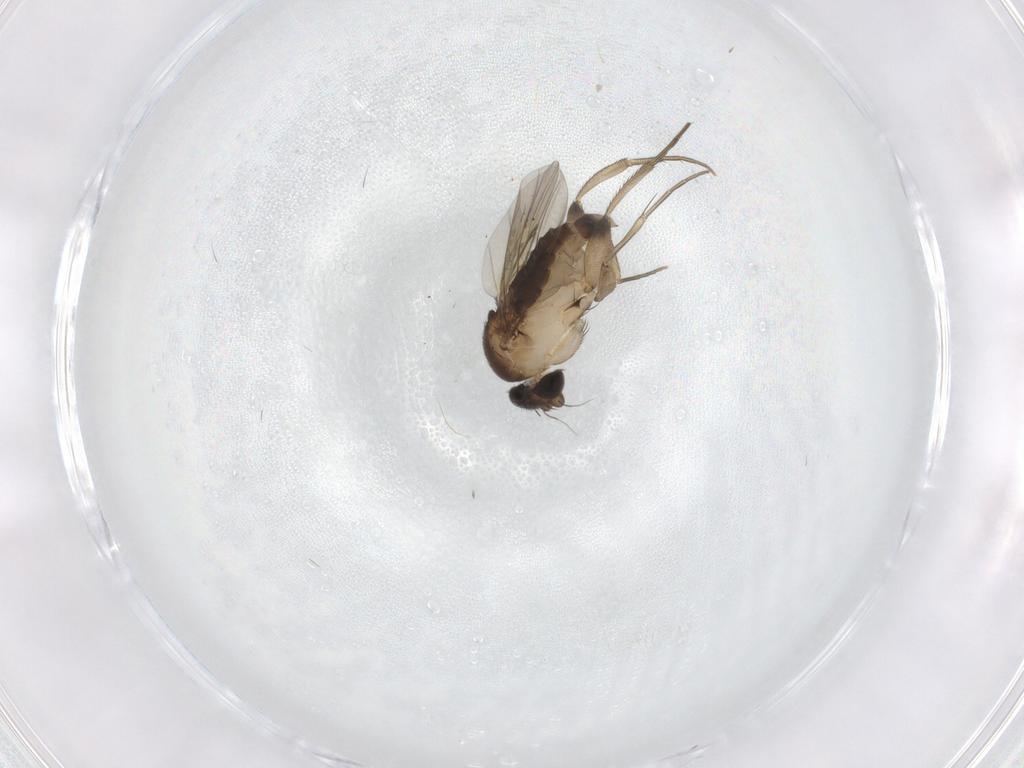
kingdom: Animalia
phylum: Arthropoda
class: Insecta
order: Diptera
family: Phoridae
